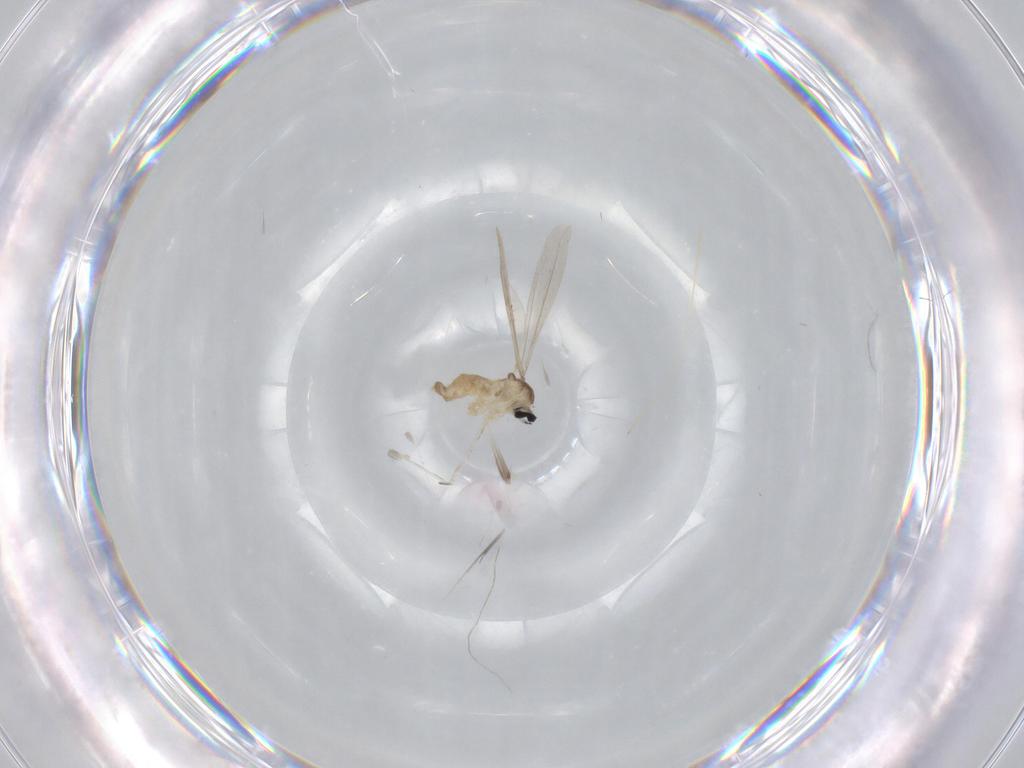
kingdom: Animalia
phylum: Arthropoda
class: Insecta
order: Diptera
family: Cecidomyiidae
